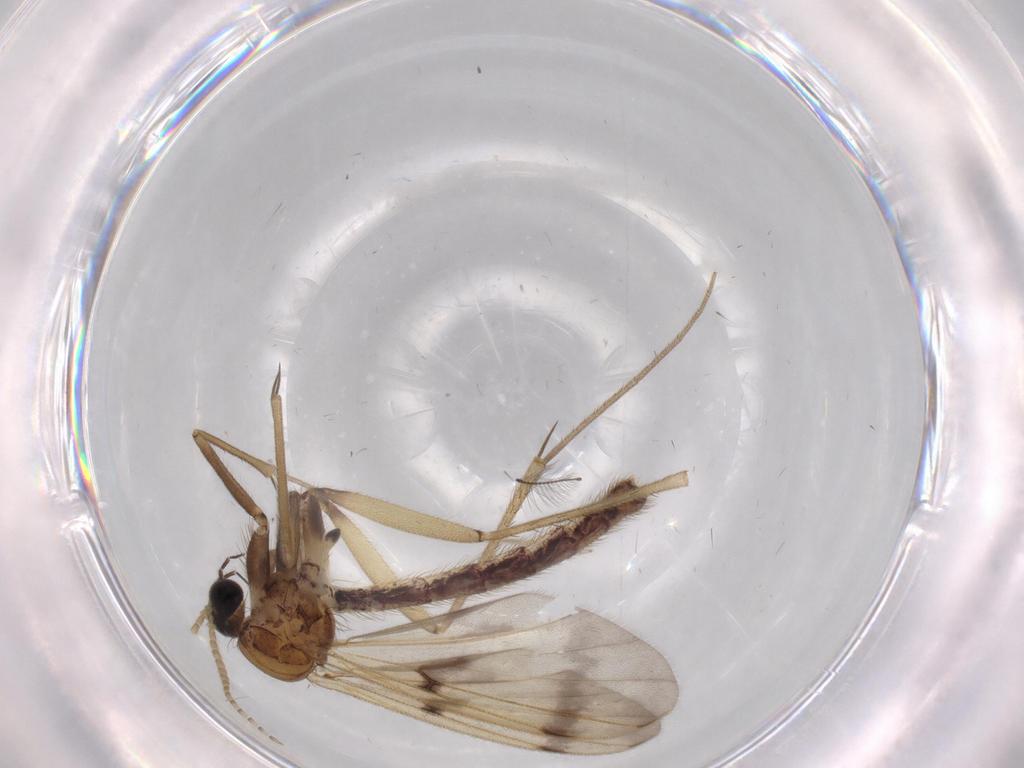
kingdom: Animalia
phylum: Arthropoda
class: Insecta
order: Diptera
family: Mycetophilidae
